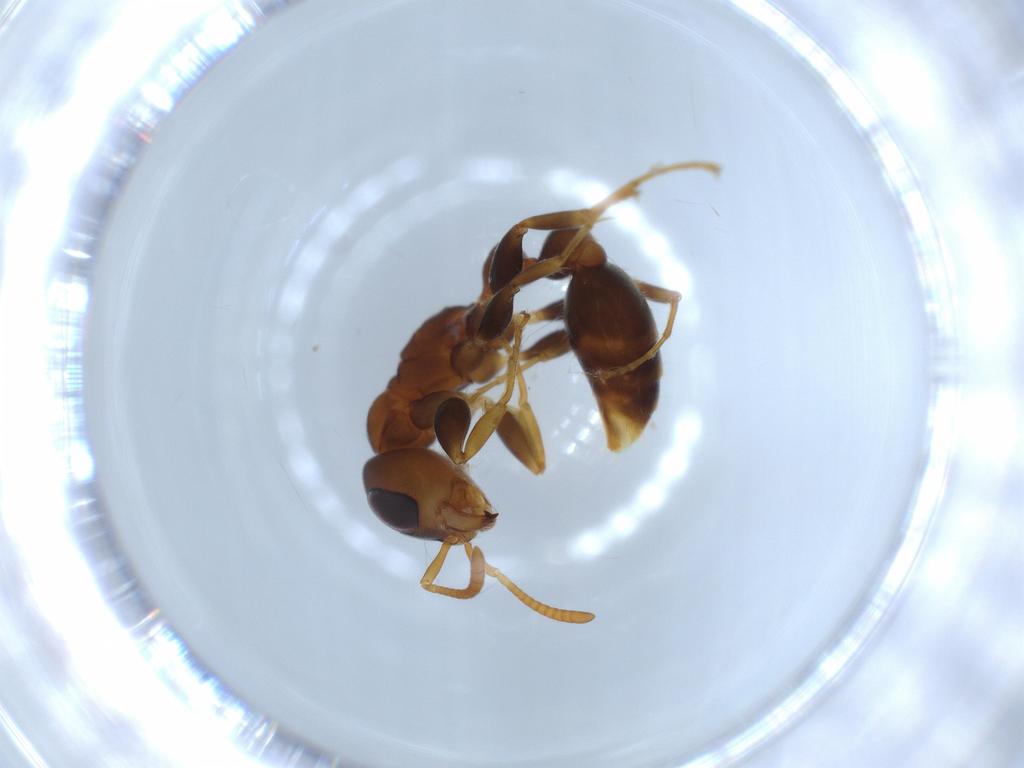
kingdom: Animalia
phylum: Arthropoda
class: Insecta
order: Hymenoptera
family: Formicidae
